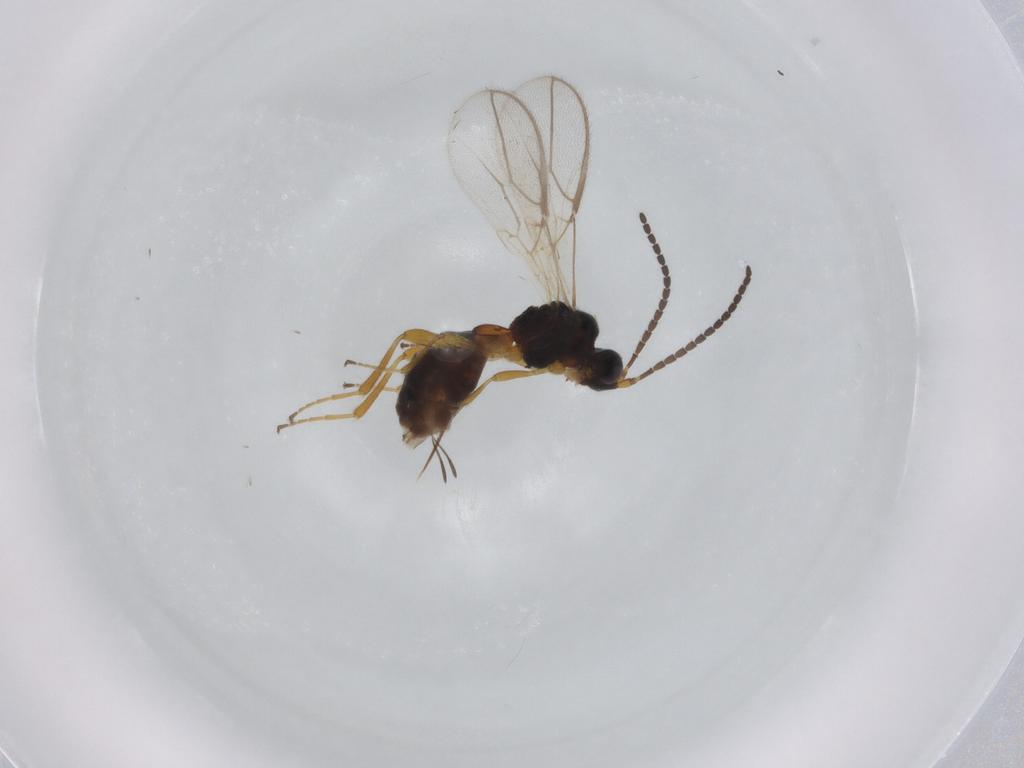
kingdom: Animalia
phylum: Arthropoda
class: Insecta
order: Hymenoptera
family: Braconidae
